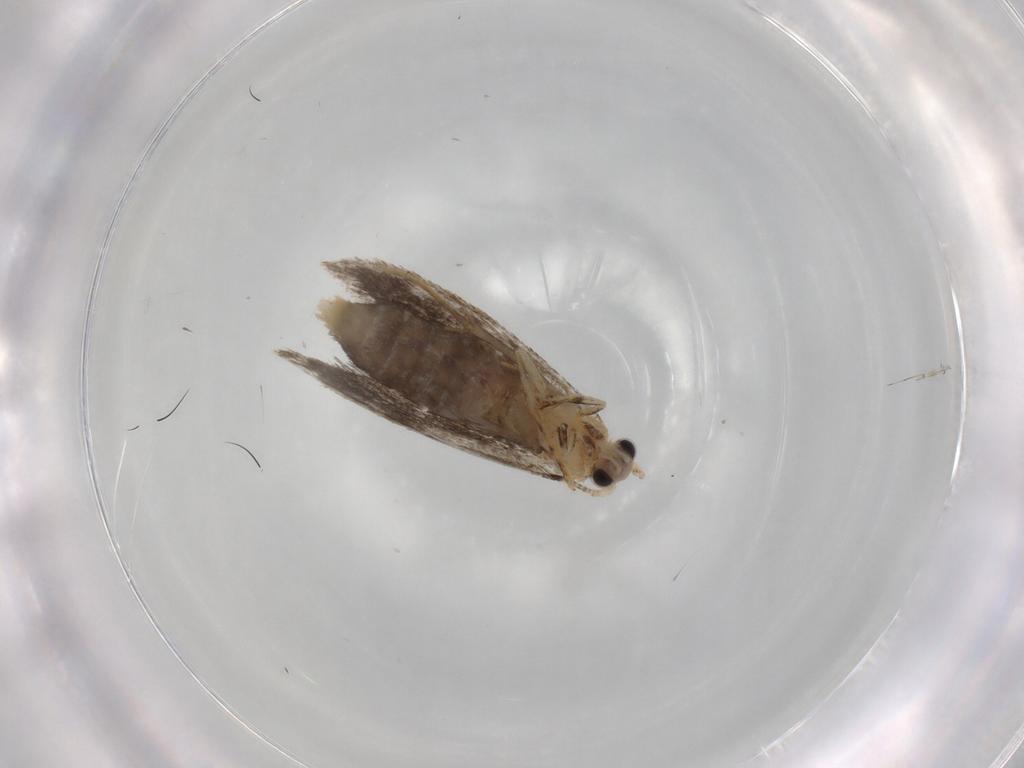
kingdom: Animalia
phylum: Arthropoda
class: Insecta
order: Lepidoptera
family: Nepticulidae
